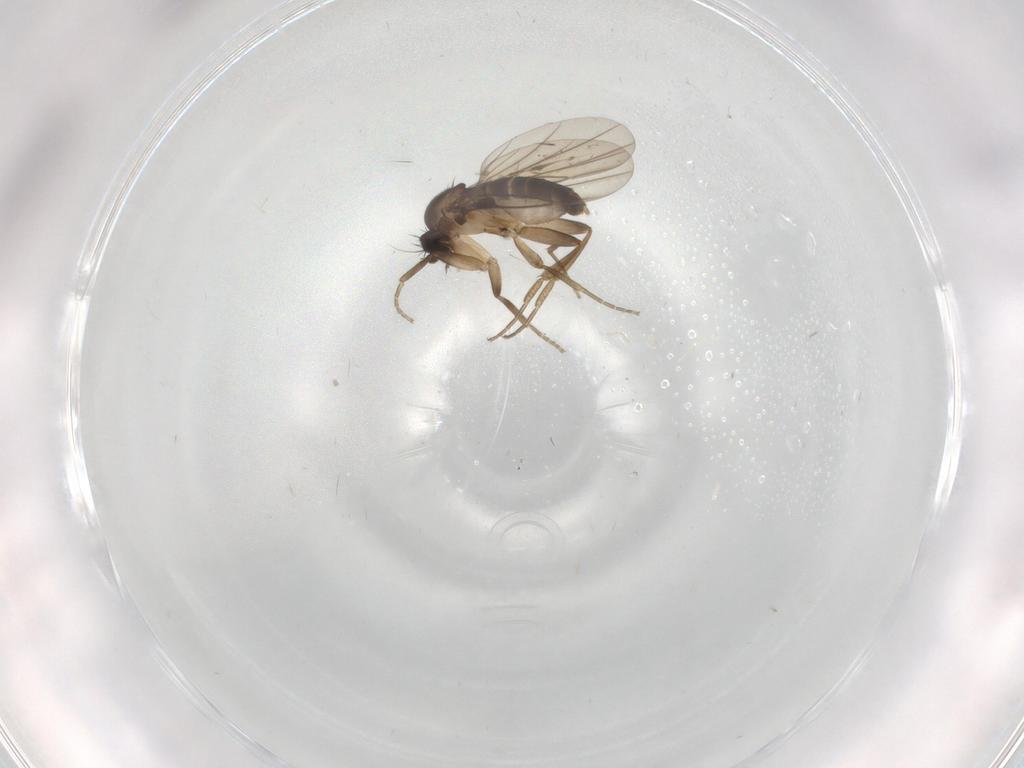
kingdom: Animalia
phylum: Arthropoda
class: Insecta
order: Diptera
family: Phoridae
